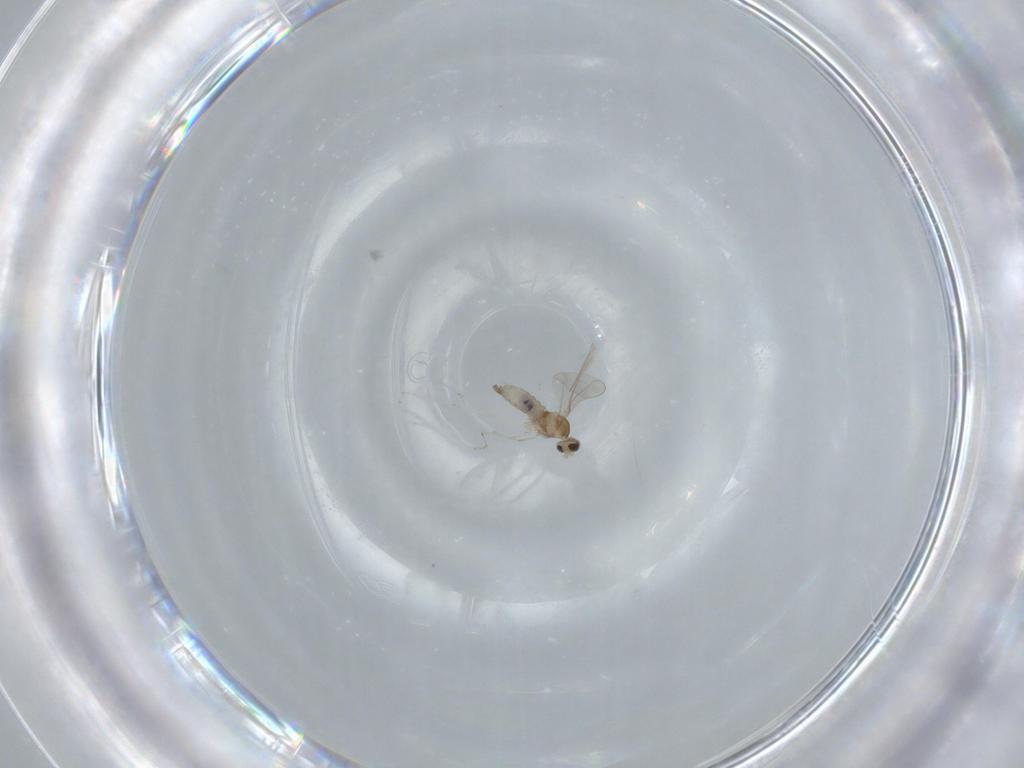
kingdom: Animalia
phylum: Arthropoda
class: Insecta
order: Diptera
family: Cecidomyiidae
